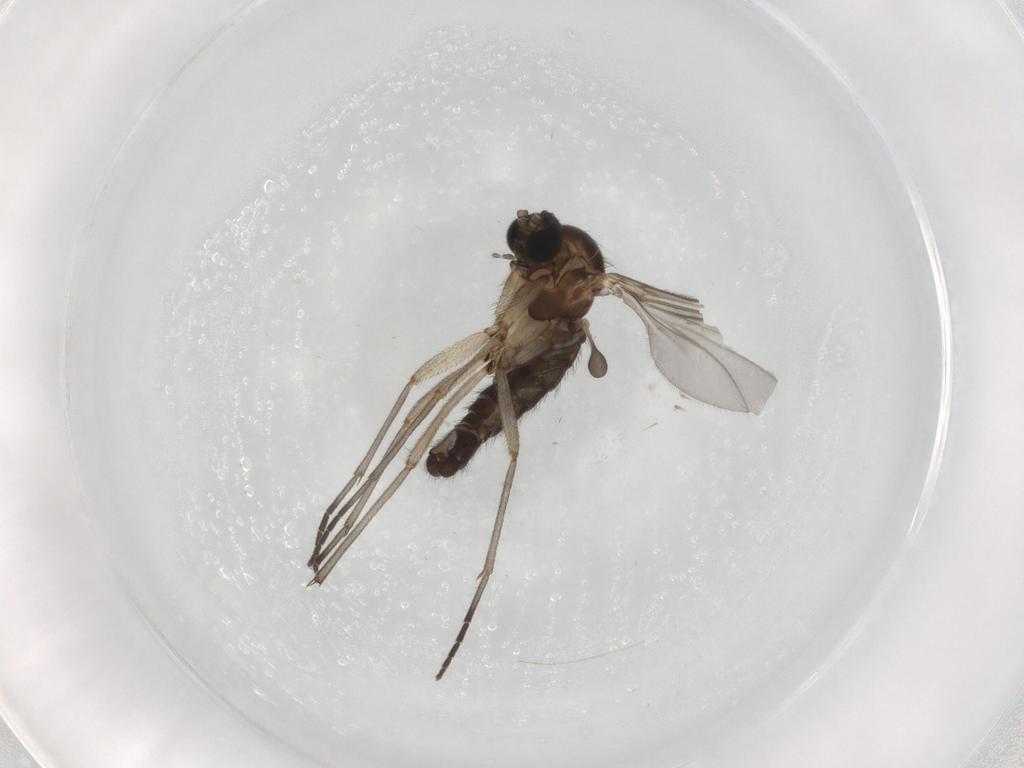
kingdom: Animalia
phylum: Arthropoda
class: Insecta
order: Diptera
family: Sciaridae
